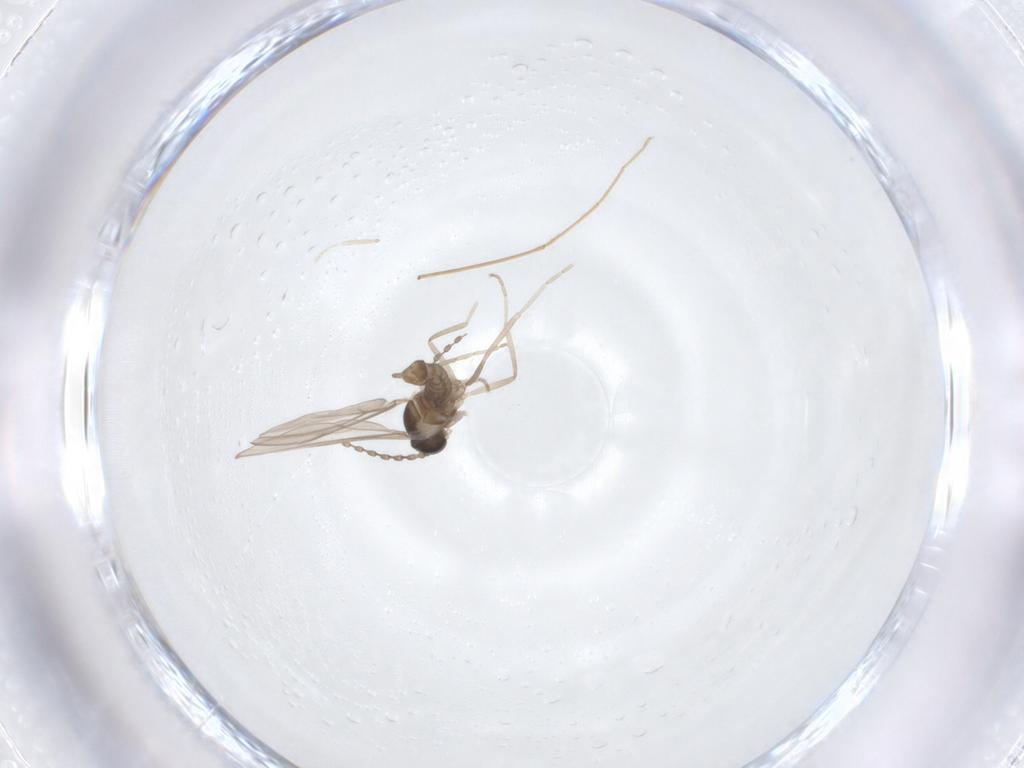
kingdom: Animalia
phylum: Arthropoda
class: Insecta
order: Diptera
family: Cecidomyiidae
